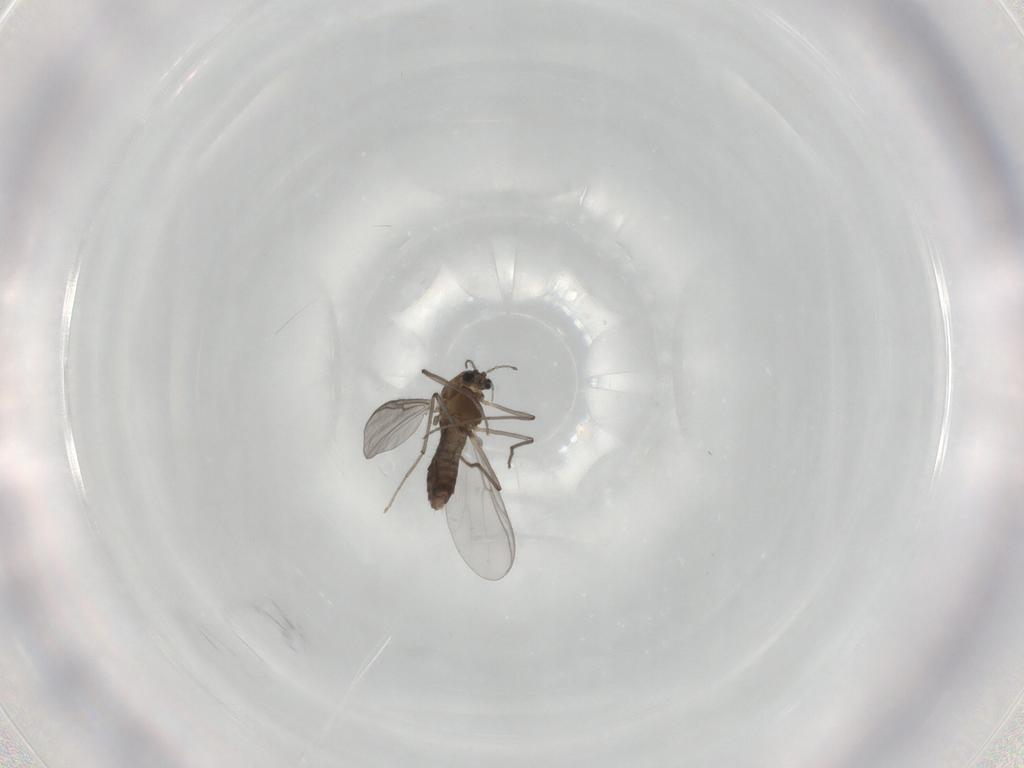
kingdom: Animalia
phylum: Arthropoda
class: Insecta
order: Diptera
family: Chironomidae
